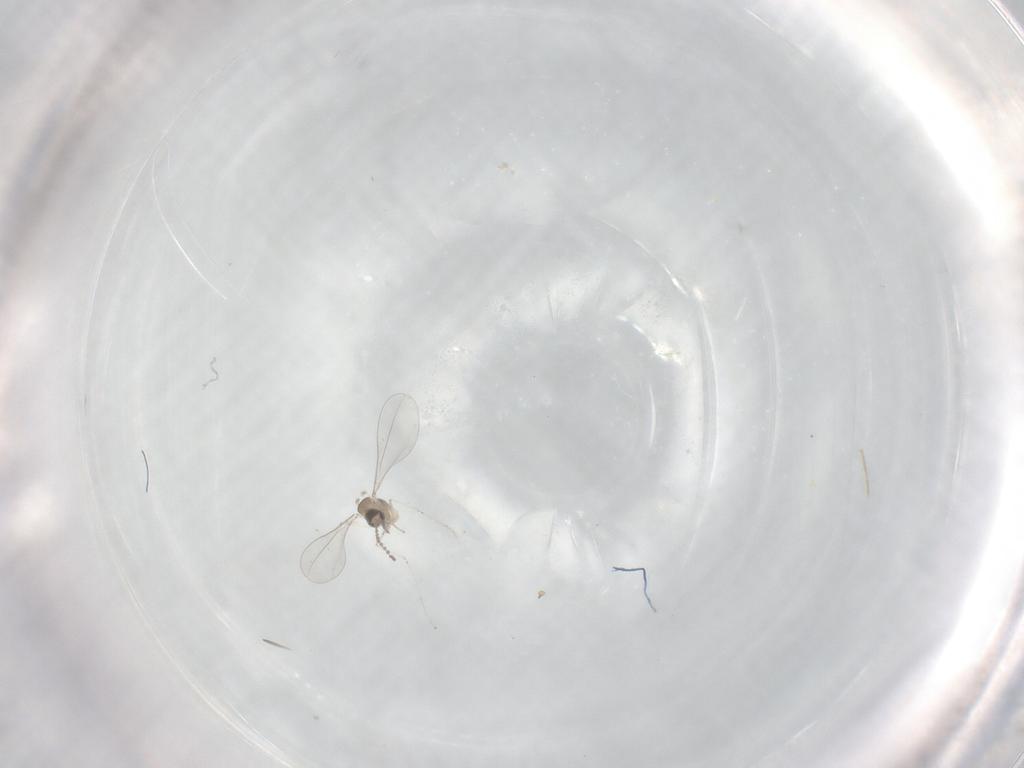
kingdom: Animalia
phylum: Arthropoda
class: Insecta
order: Diptera
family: Cecidomyiidae
